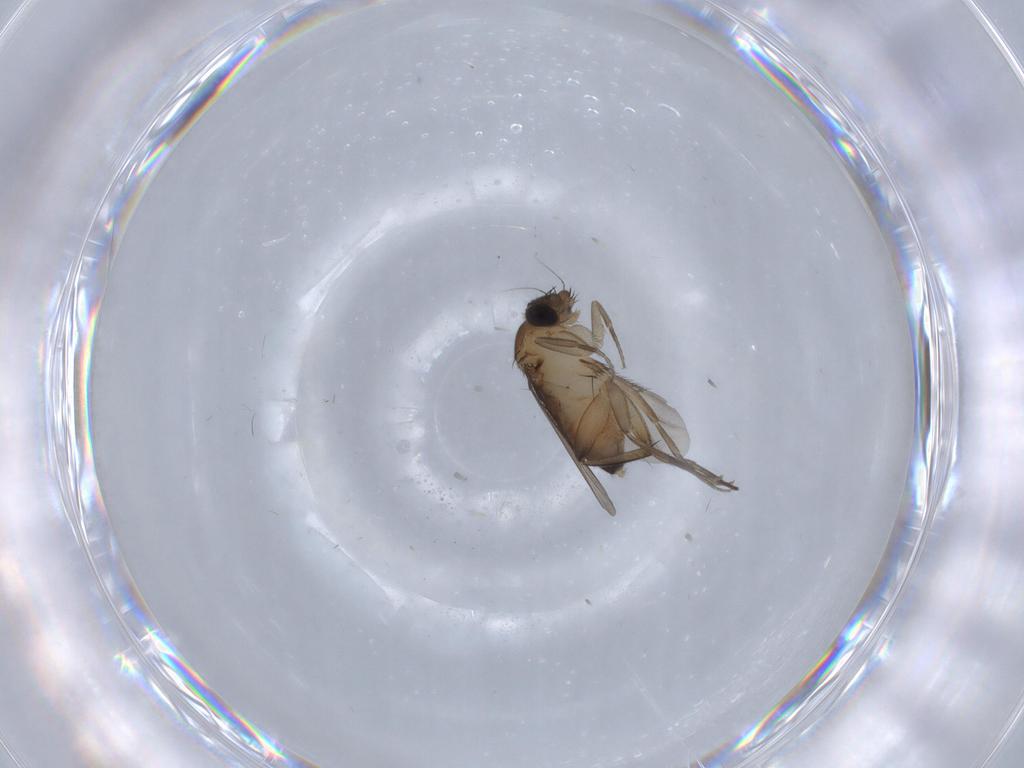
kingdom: Animalia
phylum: Arthropoda
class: Insecta
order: Diptera
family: Phoridae
